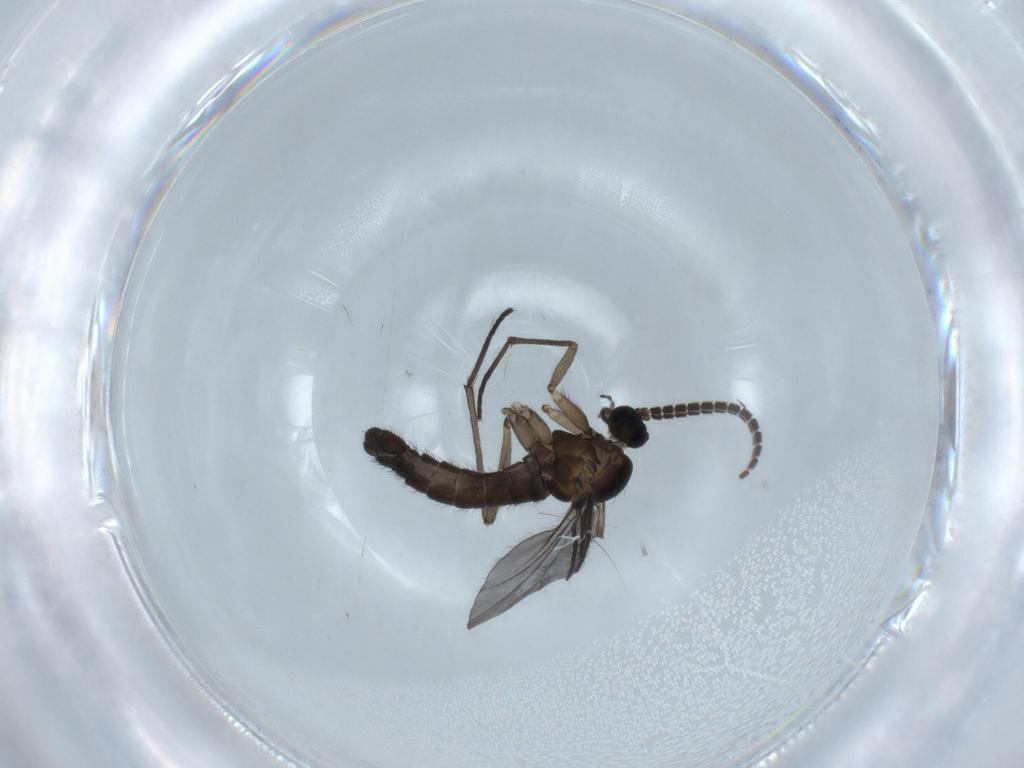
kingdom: Animalia
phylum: Arthropoda
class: Insecta
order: Diptera
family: Sciaridae
